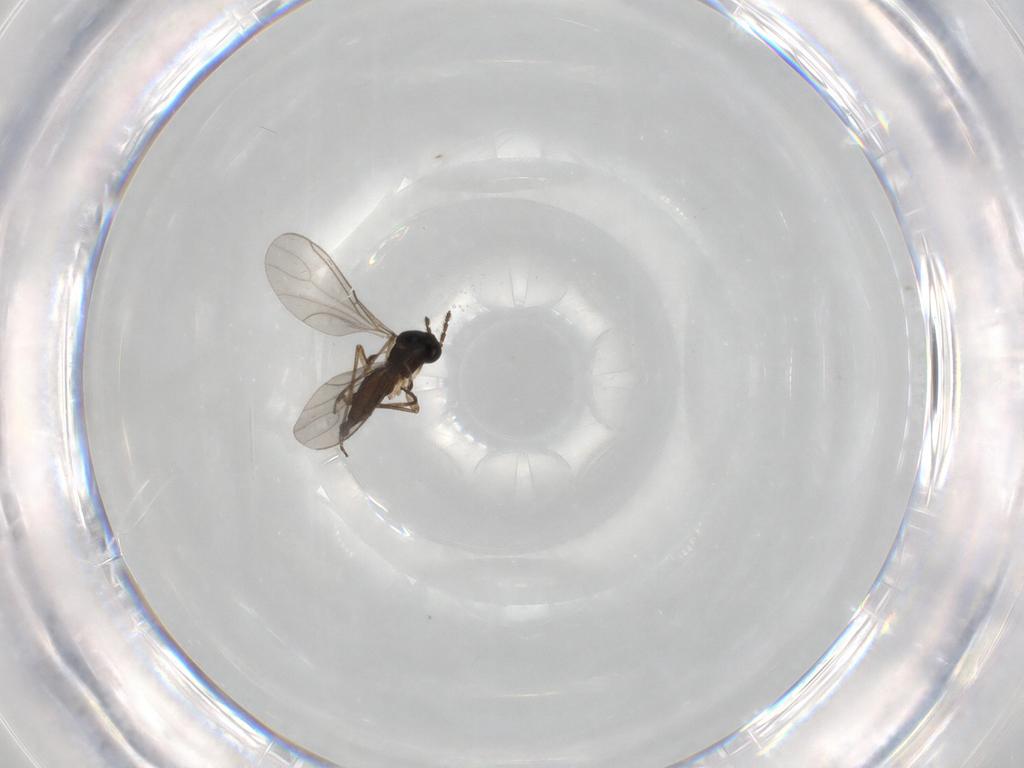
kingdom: Animalia
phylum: Arthropoda
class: Insecta
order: Diptera
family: Sciaridae
